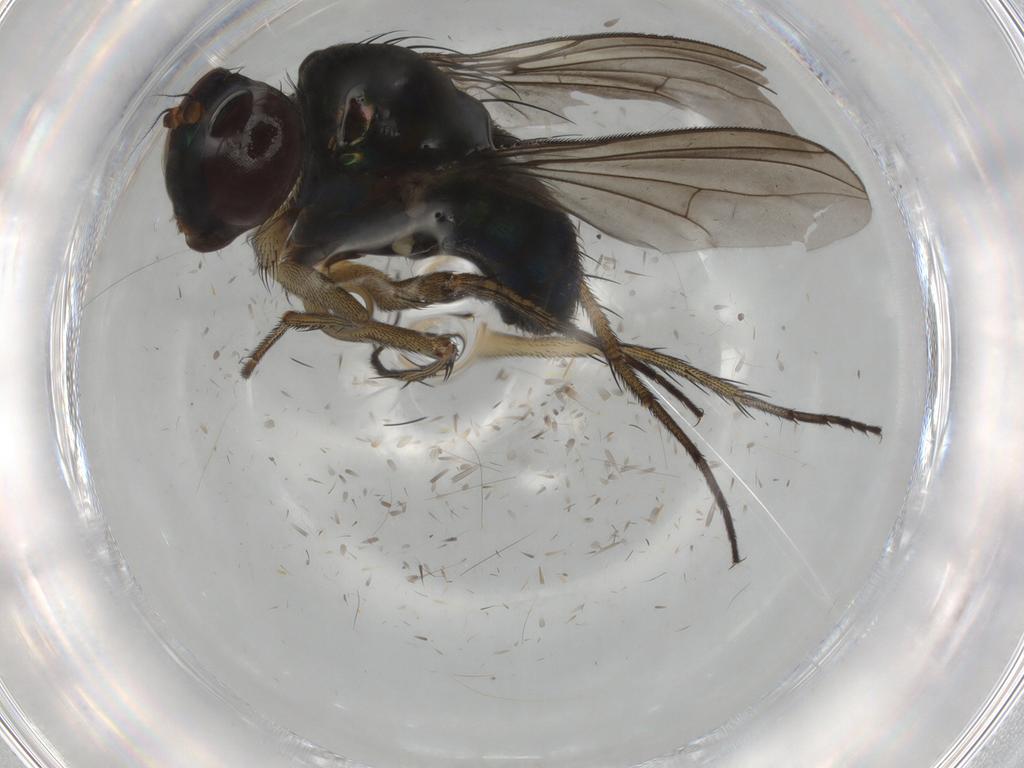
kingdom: Animalia
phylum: Arthropoda
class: Insecta
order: Diptera
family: Dolichopodidae
